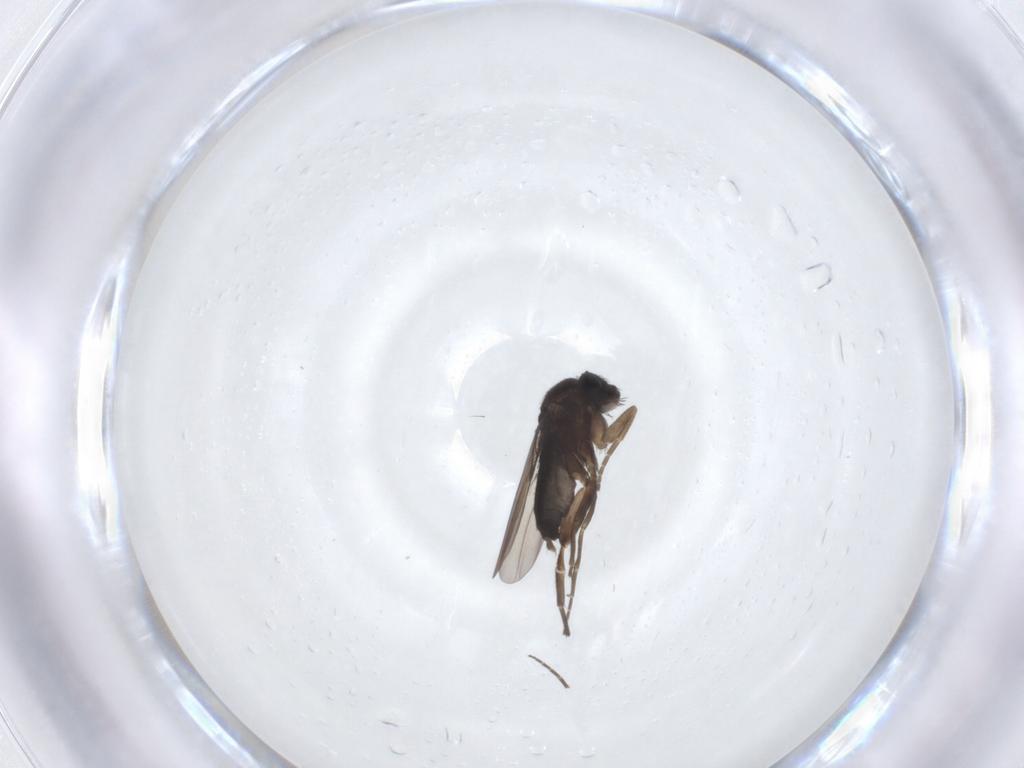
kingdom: Animalia
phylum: Arthropoda
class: Insecta
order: Diptera
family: Phoridae
